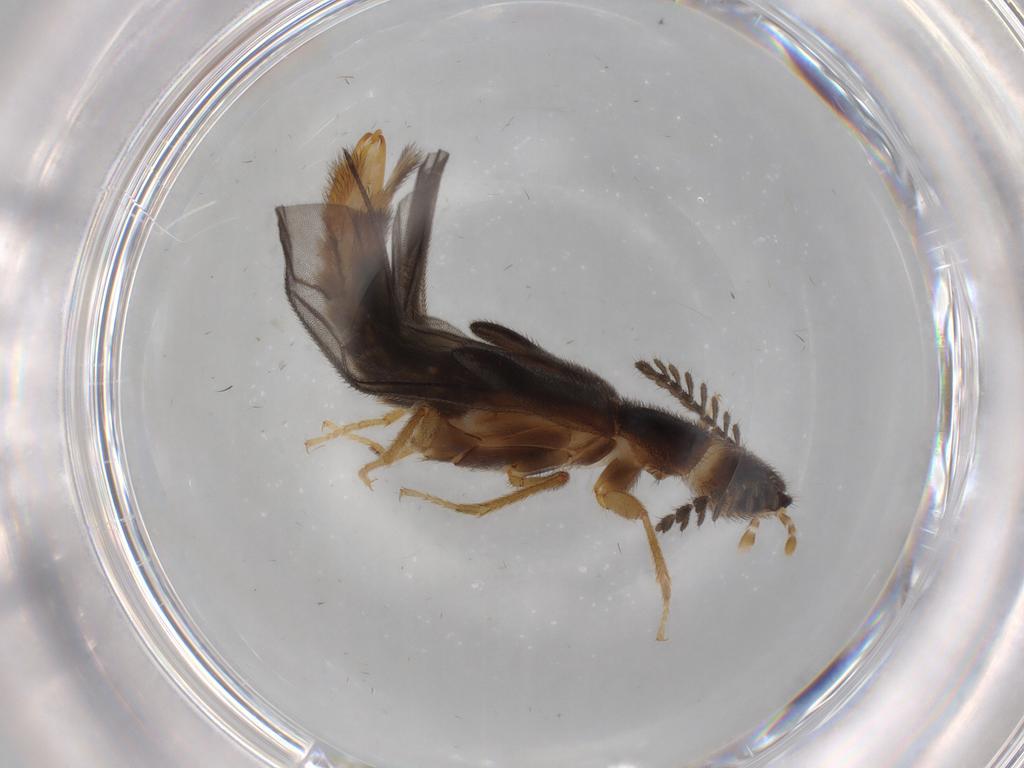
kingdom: Animalia
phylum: Arthropoda
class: Insecta
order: Coleoptera
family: Phengodidae
